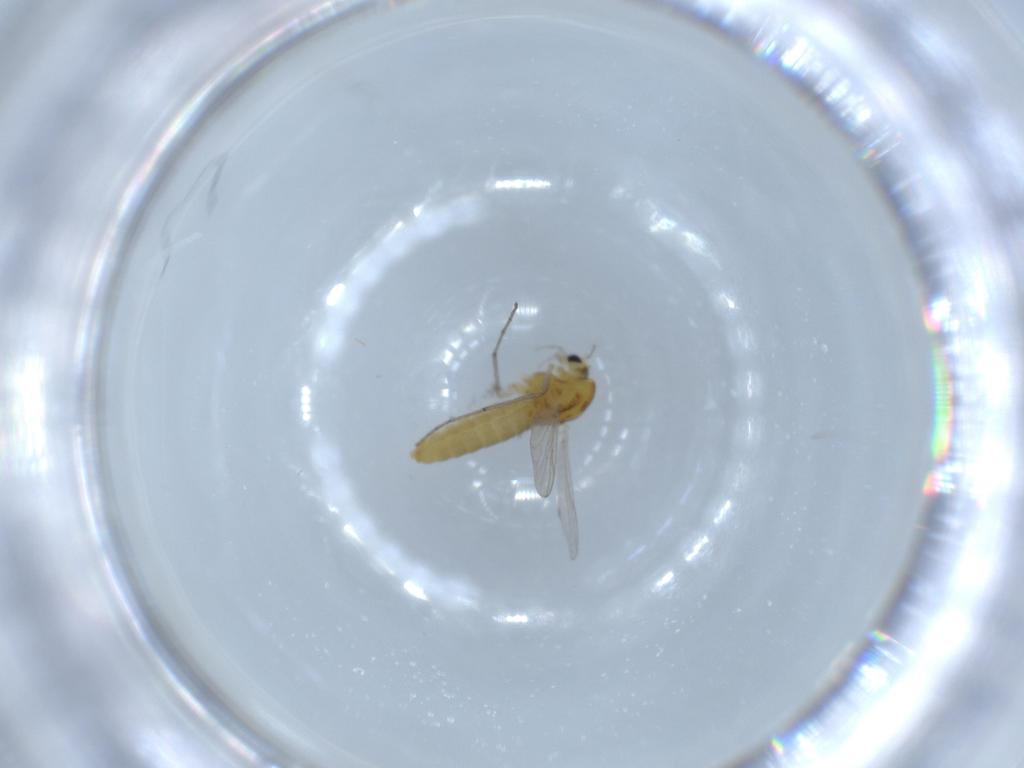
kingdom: Animalia
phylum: Arthropoda
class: Insecta
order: Diptera
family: Chironomidae
